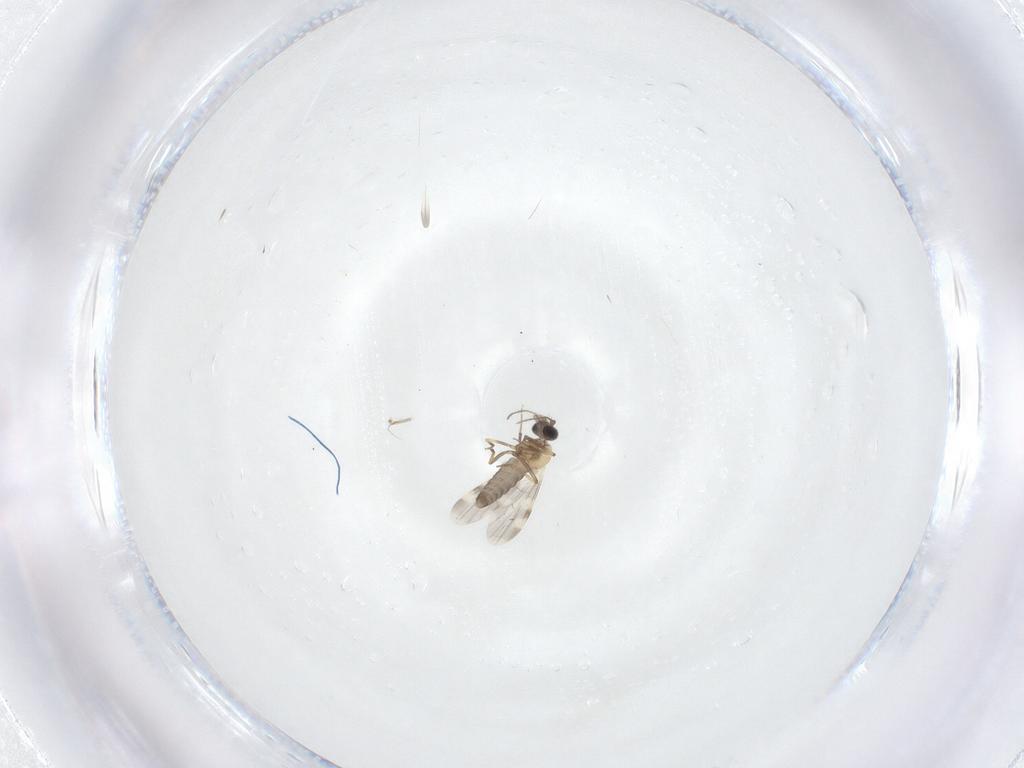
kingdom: Animalia
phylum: Arthropoda
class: Insecta
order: Diptera
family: Ceratopogonidae
